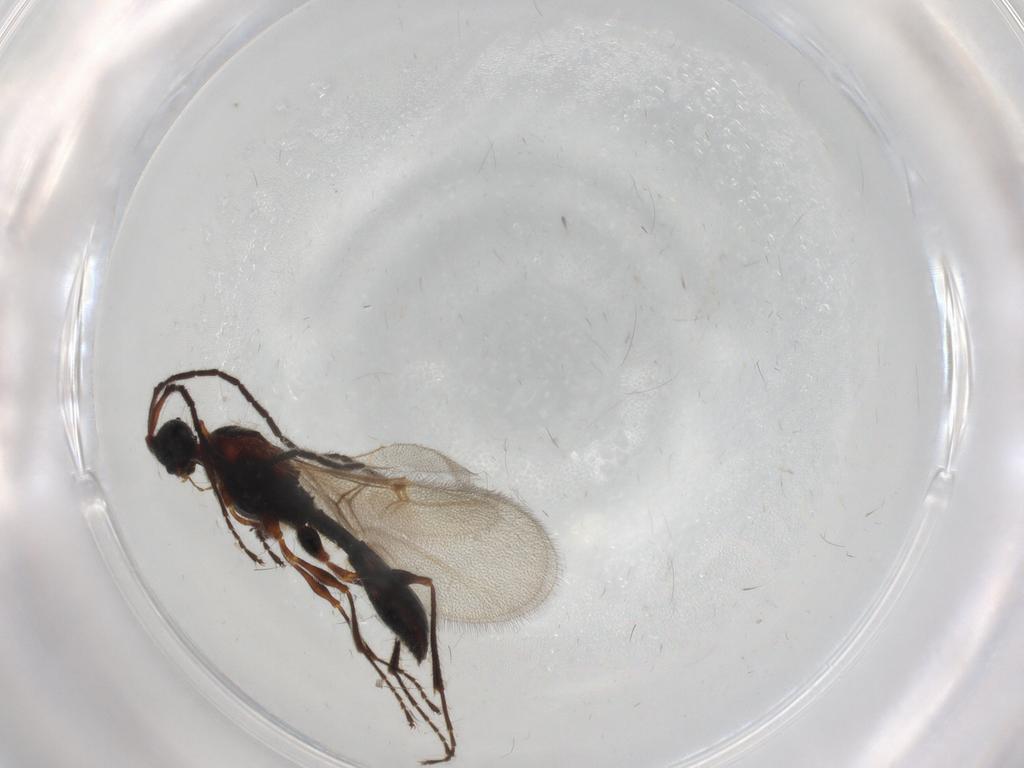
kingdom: Animalia
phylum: Arthropoda
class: Insecta
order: Hymenoptera
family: Diapriidae
